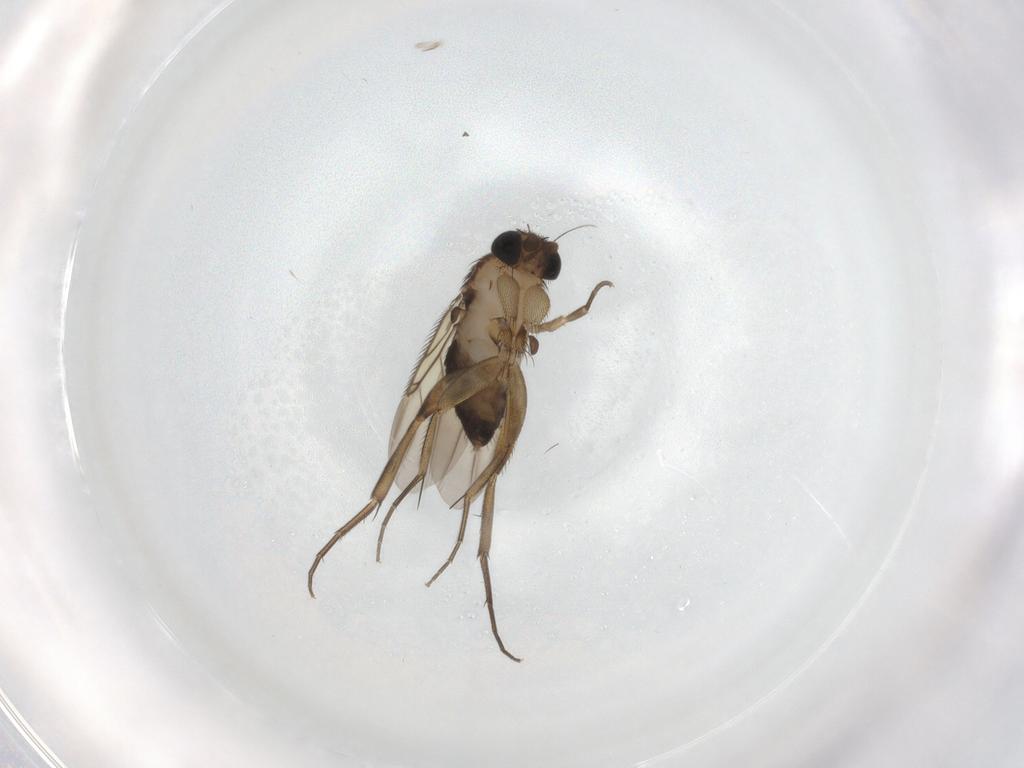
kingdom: Animalia
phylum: Arthropoda
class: Insecta
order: Diptera
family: Phoridae
